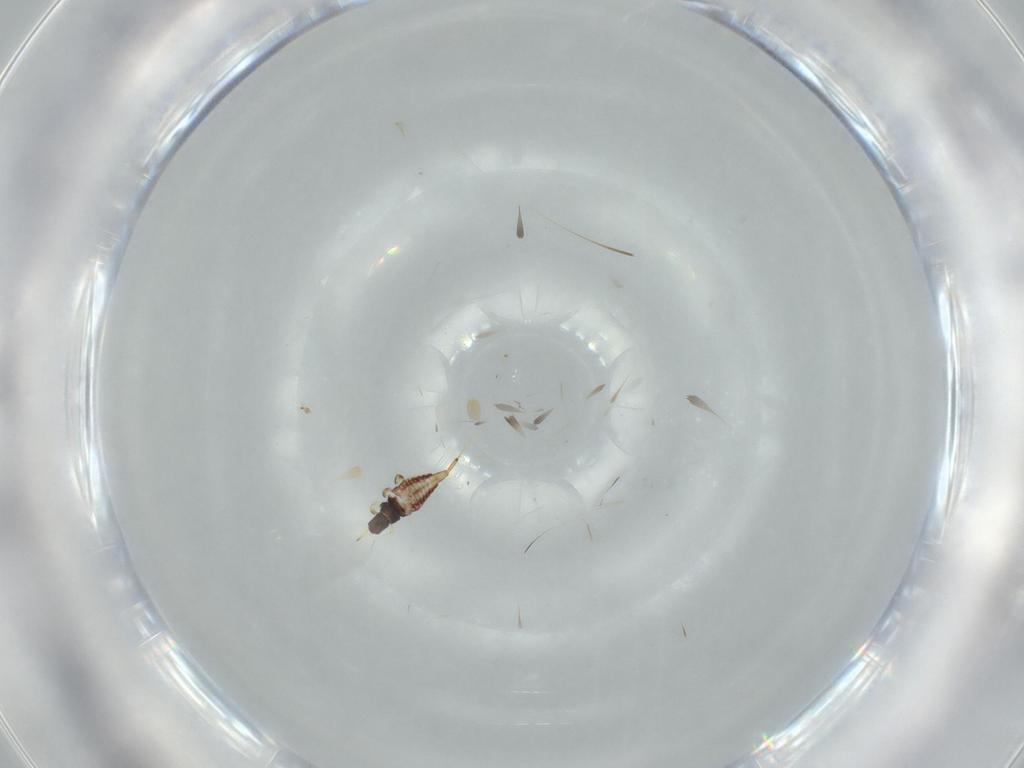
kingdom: Animalia
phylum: Arthropoda
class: Insecta
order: Thysanoptera
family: Phlaeothripidae
